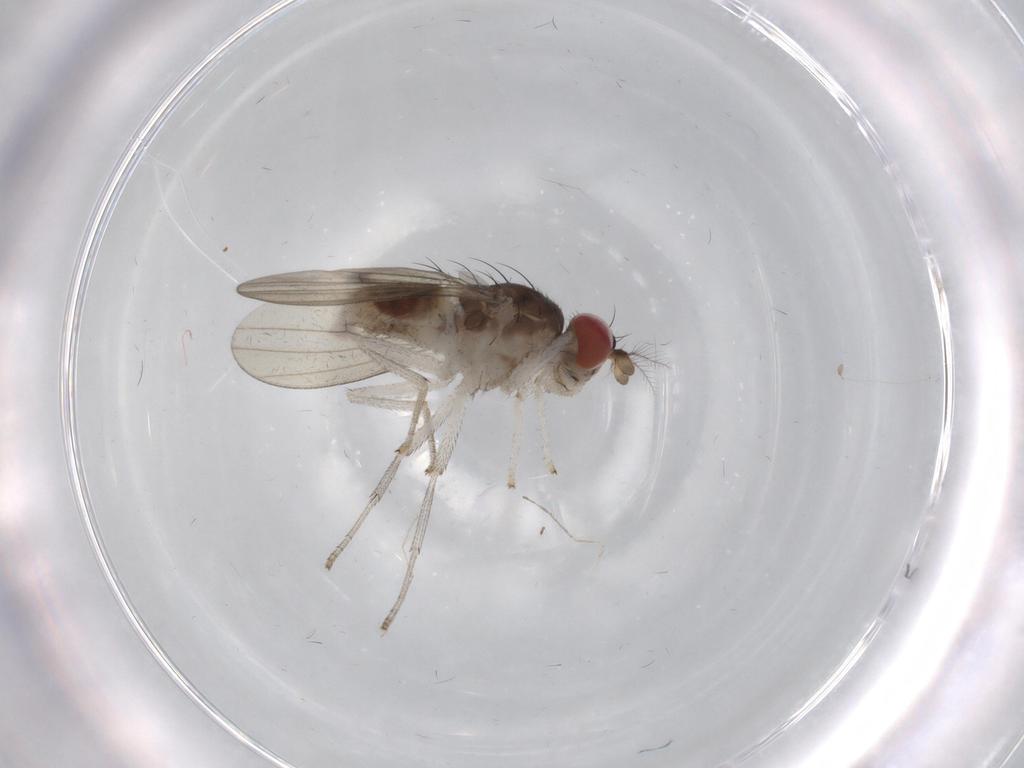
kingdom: Animalia
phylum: Arthropoda
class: Insecta
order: Diptera
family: Cecidomyiidae
